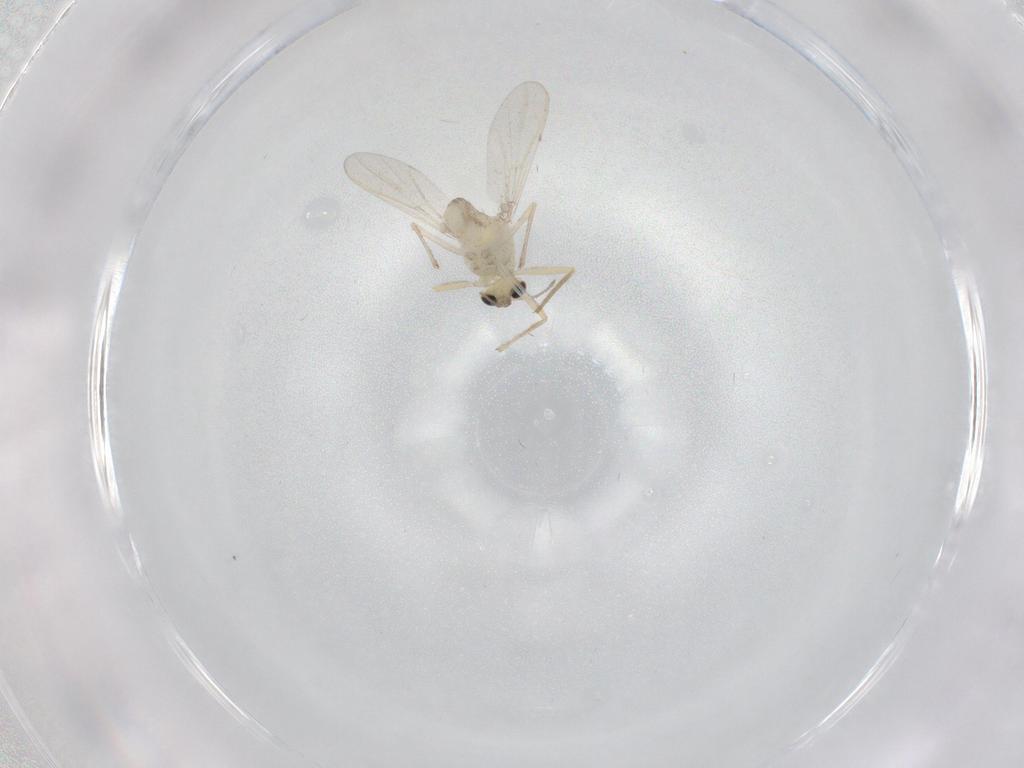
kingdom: Animalia
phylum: Arthropoda
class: Insecta
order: Diptera
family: Chironomidae
